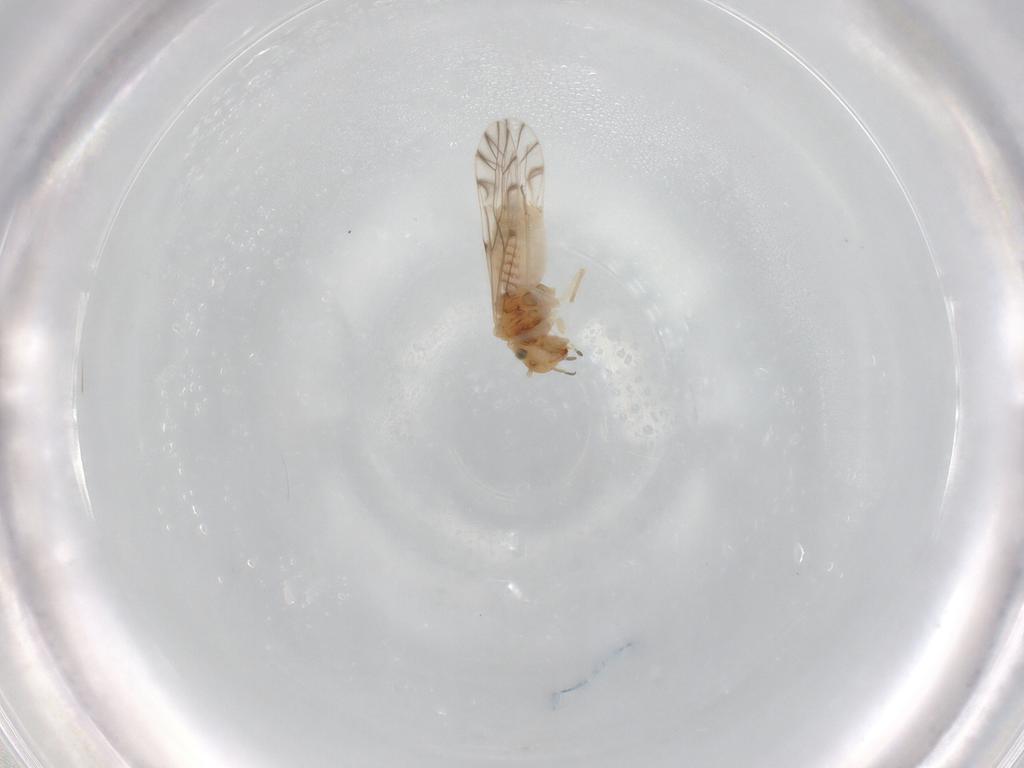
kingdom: Animalia
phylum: Arthropoda
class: Insecta
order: Psocodea
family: Lachesillidae
